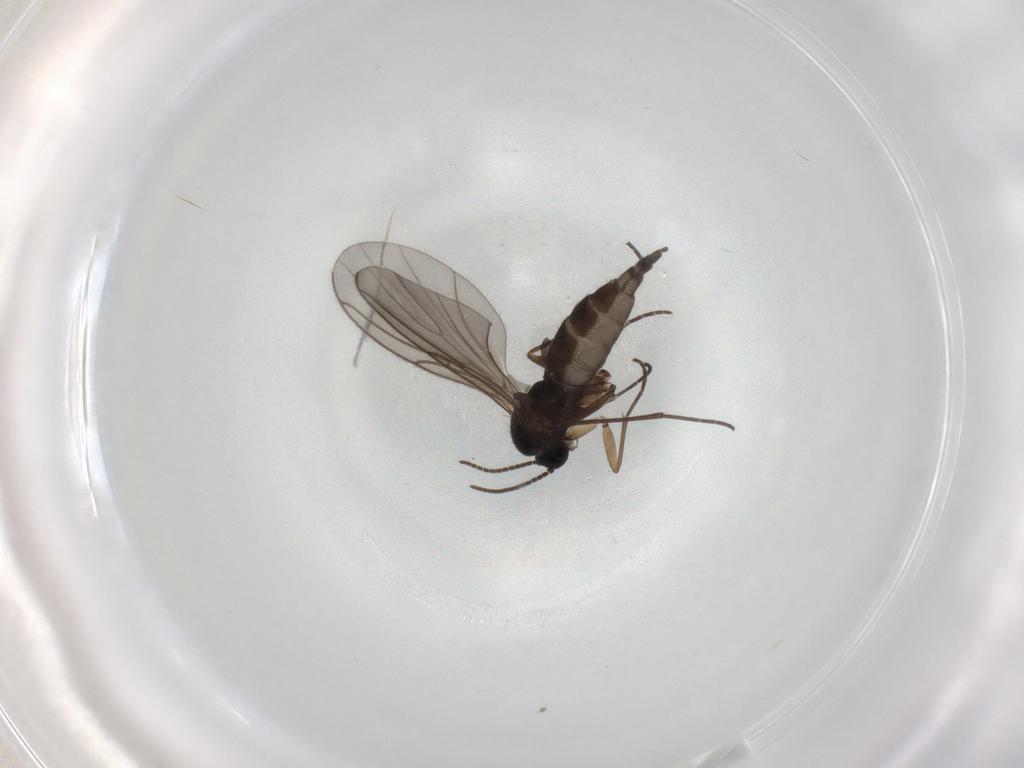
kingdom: Animalia
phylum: Arthropoda
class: Insecta
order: Diptera
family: Sciaridae
